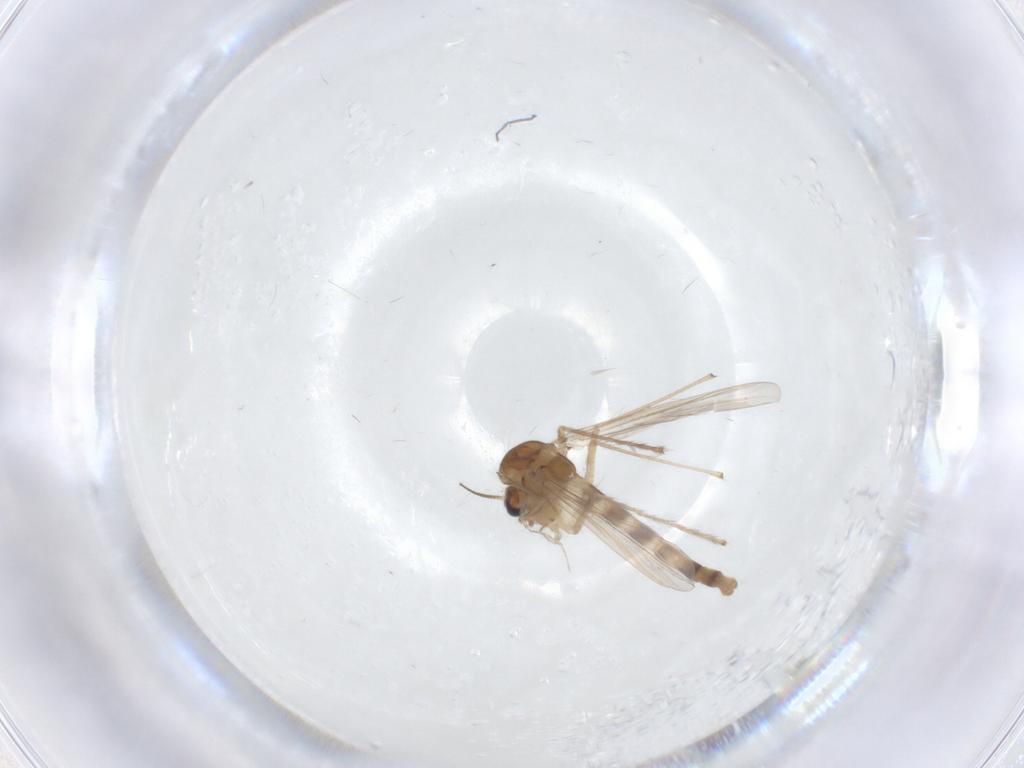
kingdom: Animalia
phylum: Arthropoda
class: Insecta
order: Diptera
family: Chironomidae
